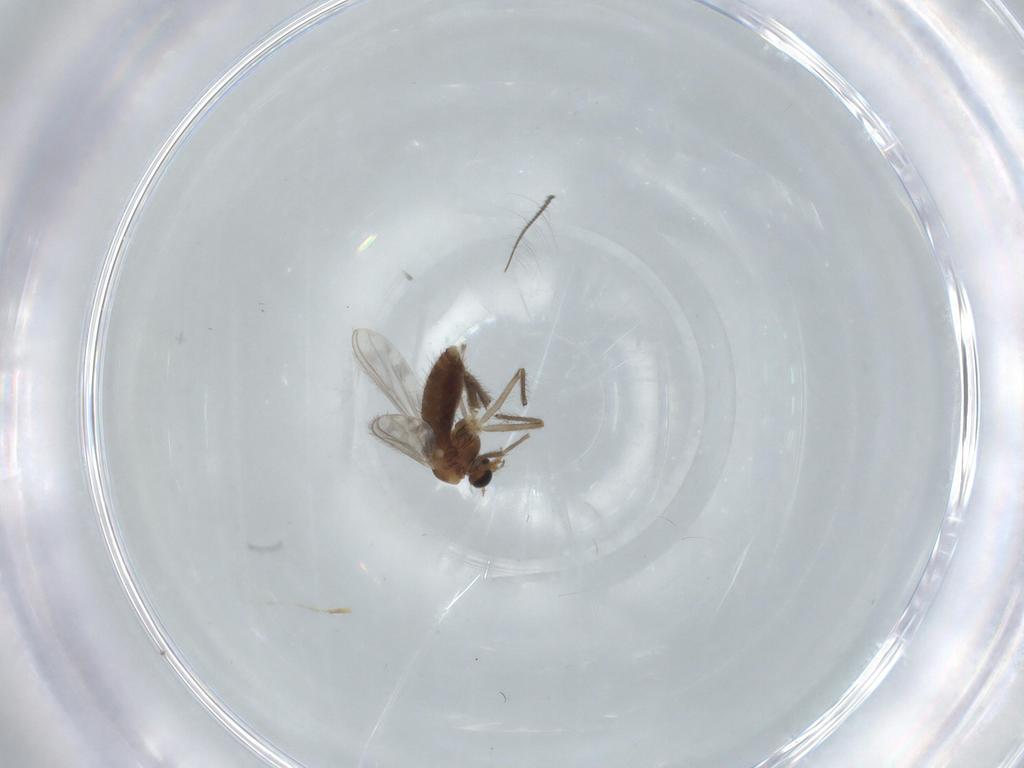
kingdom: Animalia
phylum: Arthropoda
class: Insecta
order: Diptera
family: Chironomidae
